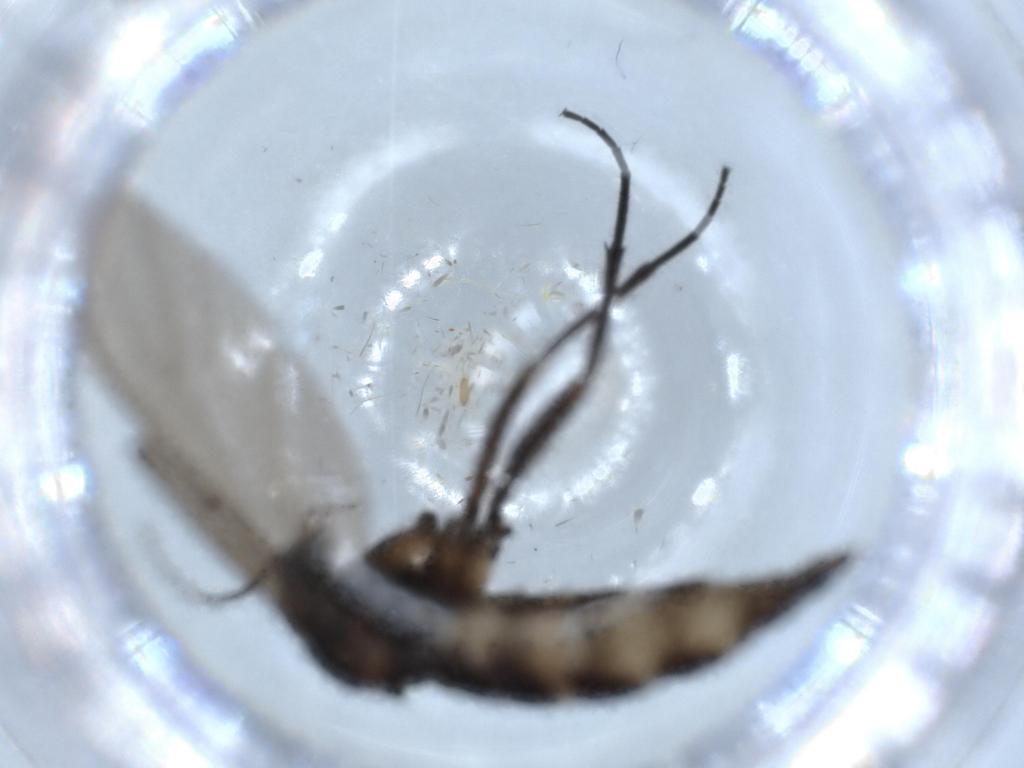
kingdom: Animalia
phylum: Arthropoda
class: Insecta
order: Diptera
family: Sciaridae
